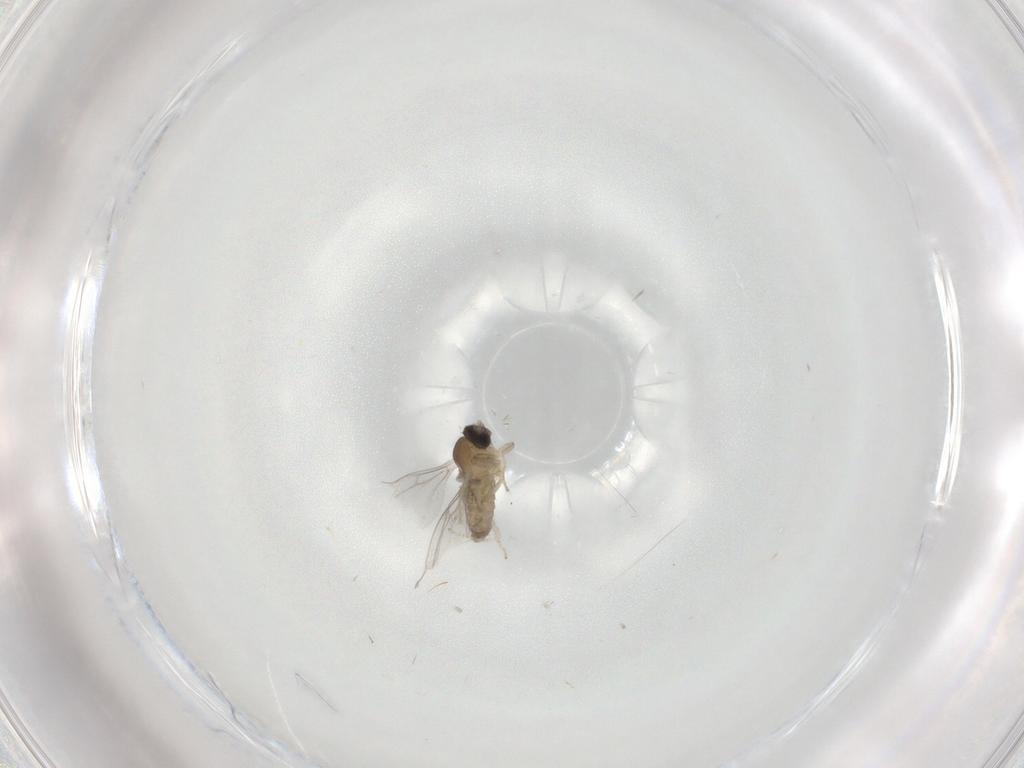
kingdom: Animalia
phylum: Arthropoda
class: Insecta
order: Diptera
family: Cecidomyiidae
